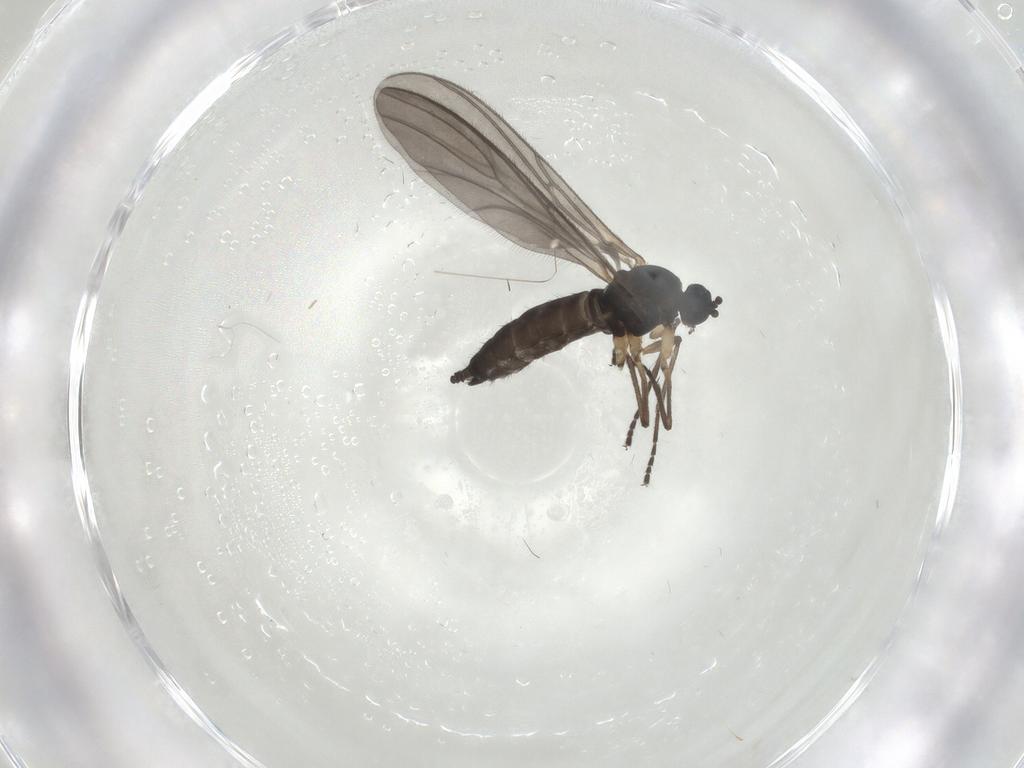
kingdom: Animalia
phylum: Arthropoda
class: Insecta
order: Diptera
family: Sciaridae
